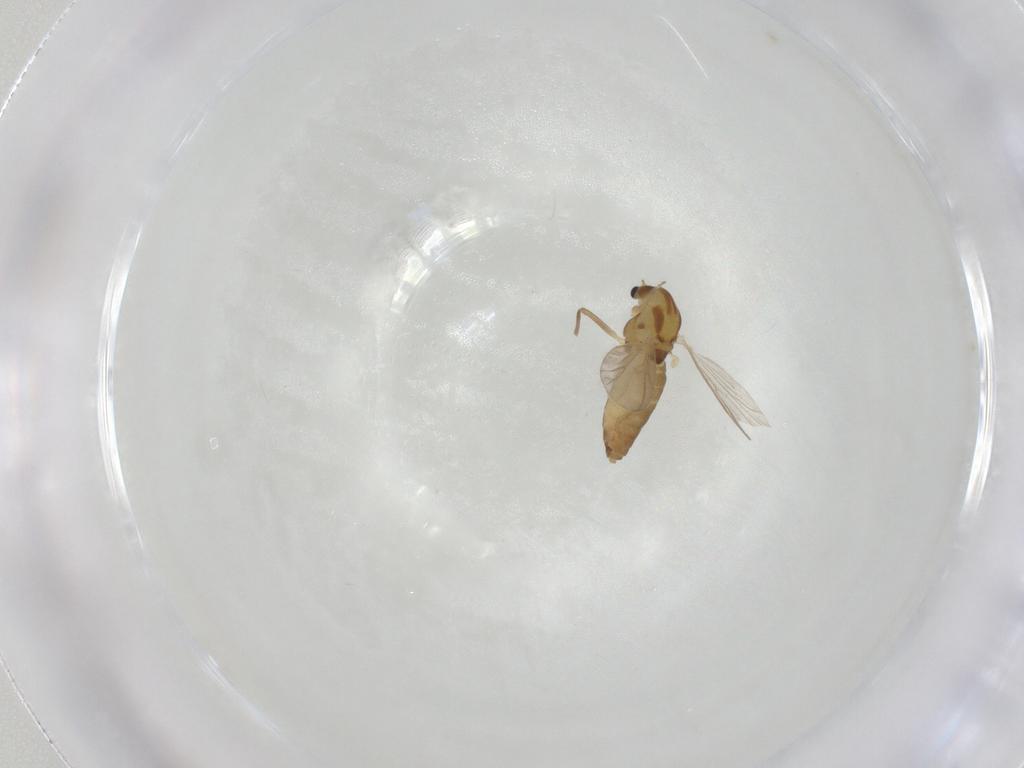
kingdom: Animalia
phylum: Arthropoda
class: Insecta
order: Diptera
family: Chironomidae
